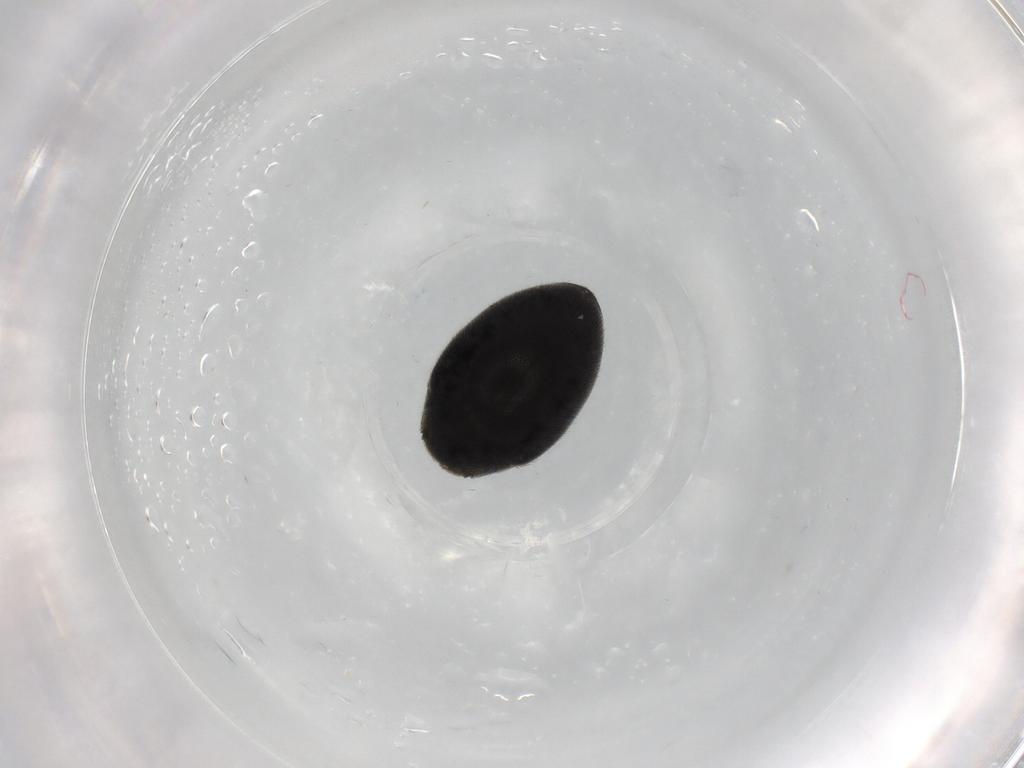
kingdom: Animalia
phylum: Arthropoda
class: Insecta
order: Coleoptera
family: Limnichidae
